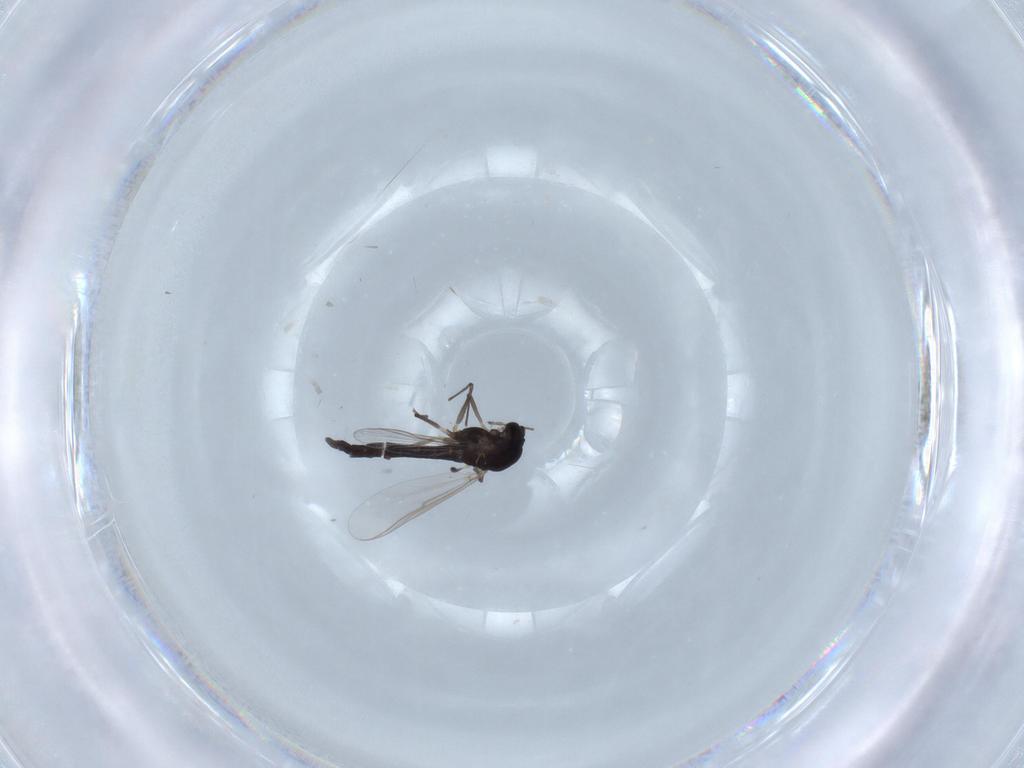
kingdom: Animalia
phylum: Arthropoda
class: Insecta
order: Diptera
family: Chironomidae
